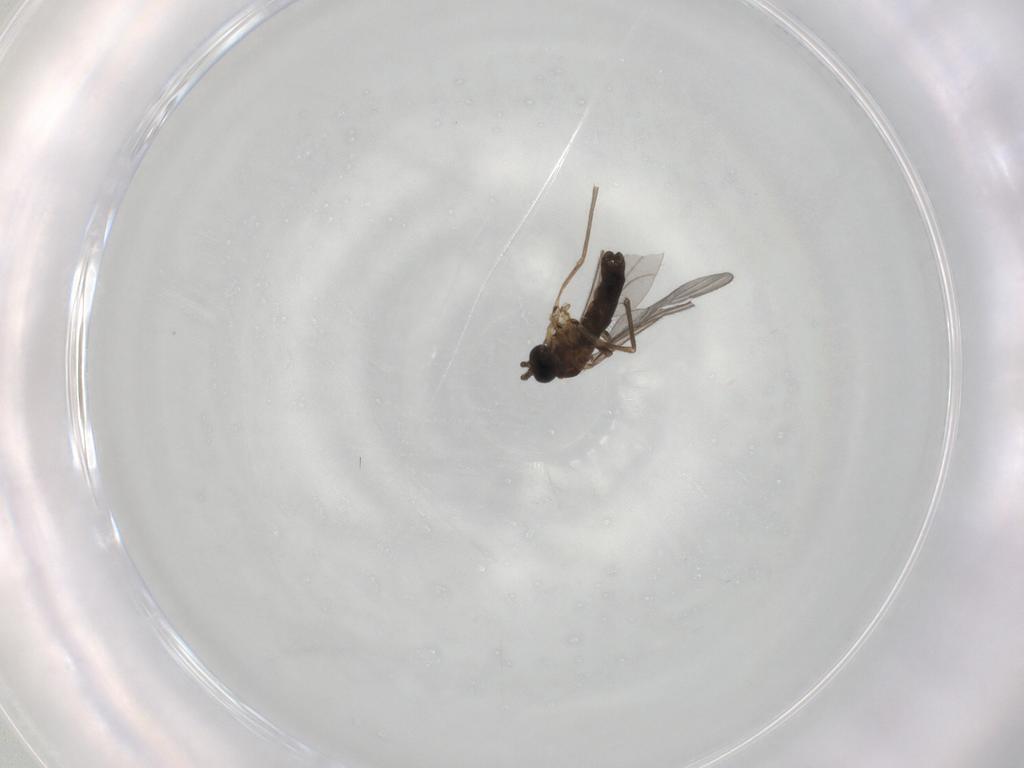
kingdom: Animalia
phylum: Arthropoda
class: Insecta
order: Diptera
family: Sciaridae
